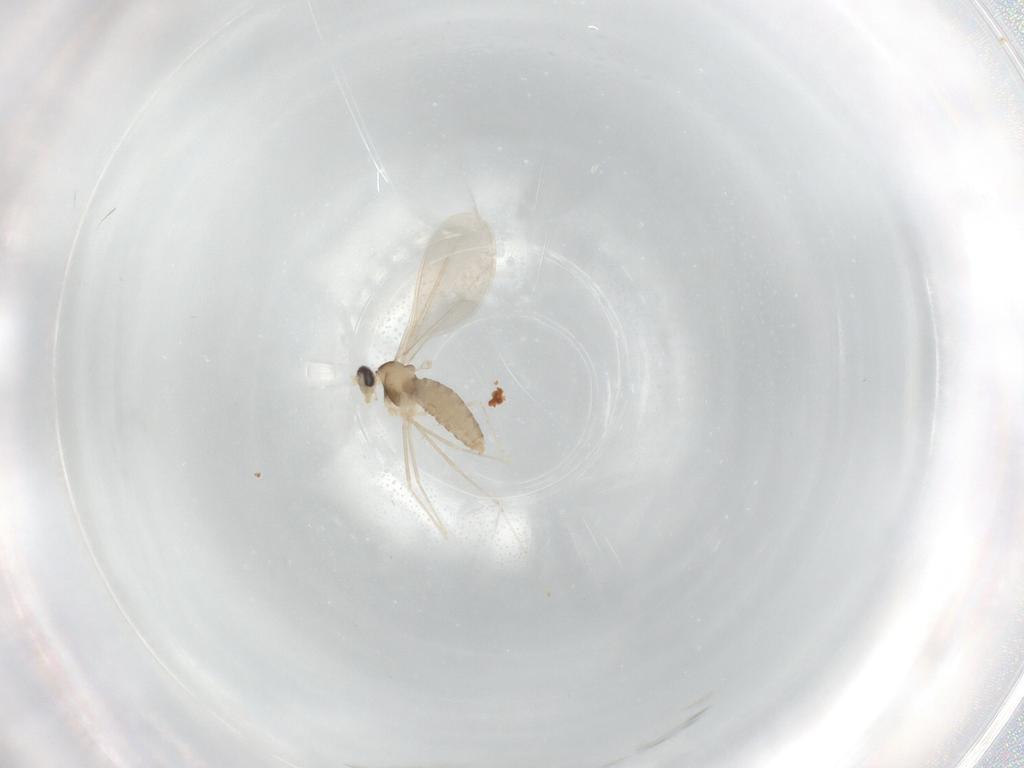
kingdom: Animalia
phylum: Arthropoda
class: Insecta
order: Diptera
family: Cecidomyiidae
